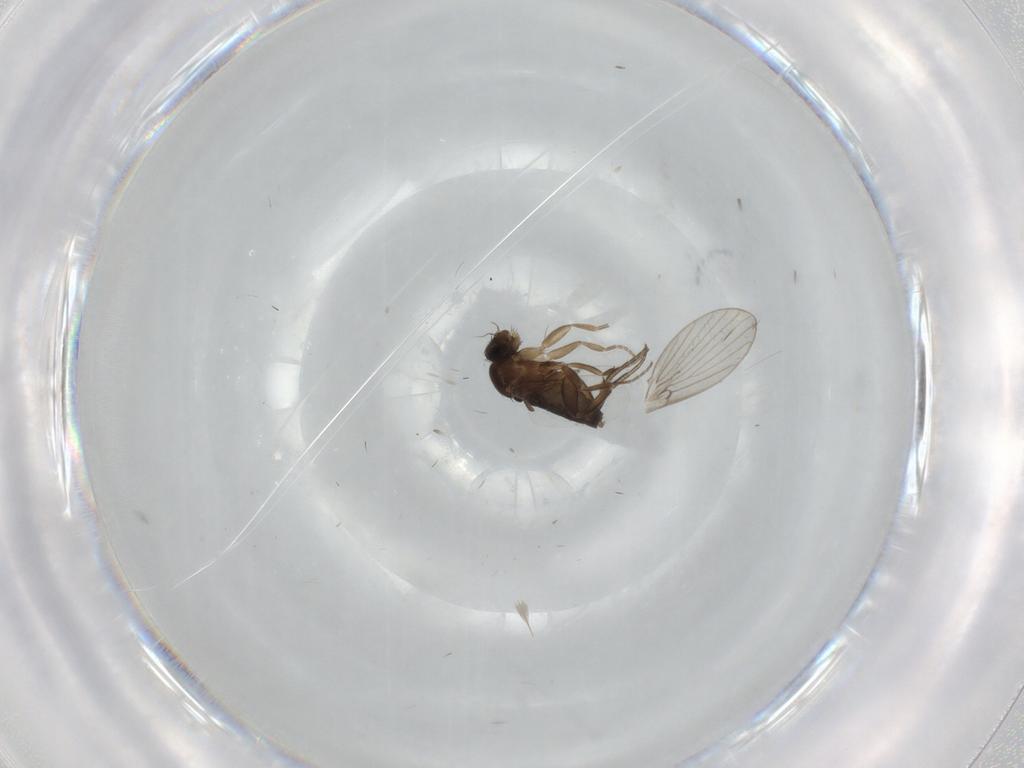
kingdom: Animalia
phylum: Arthropoda
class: Insecta
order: Diptera
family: Phoridae
